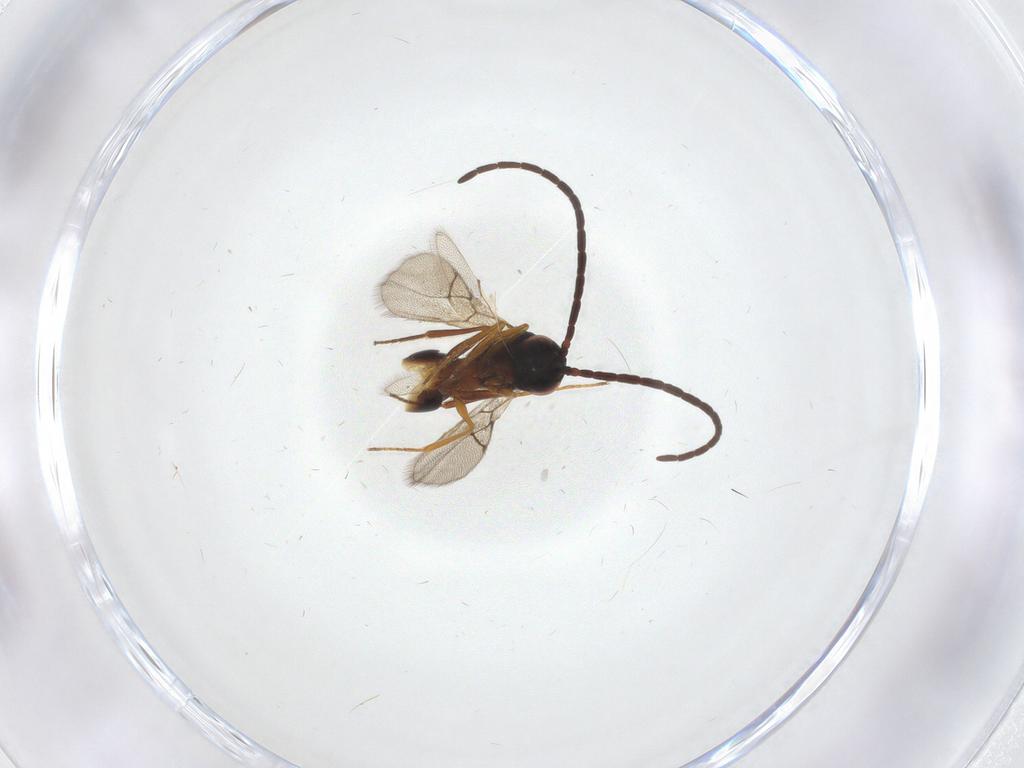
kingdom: Animalia
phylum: Arthropoda
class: Insecta
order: Hymenoptera
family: Figitidae
